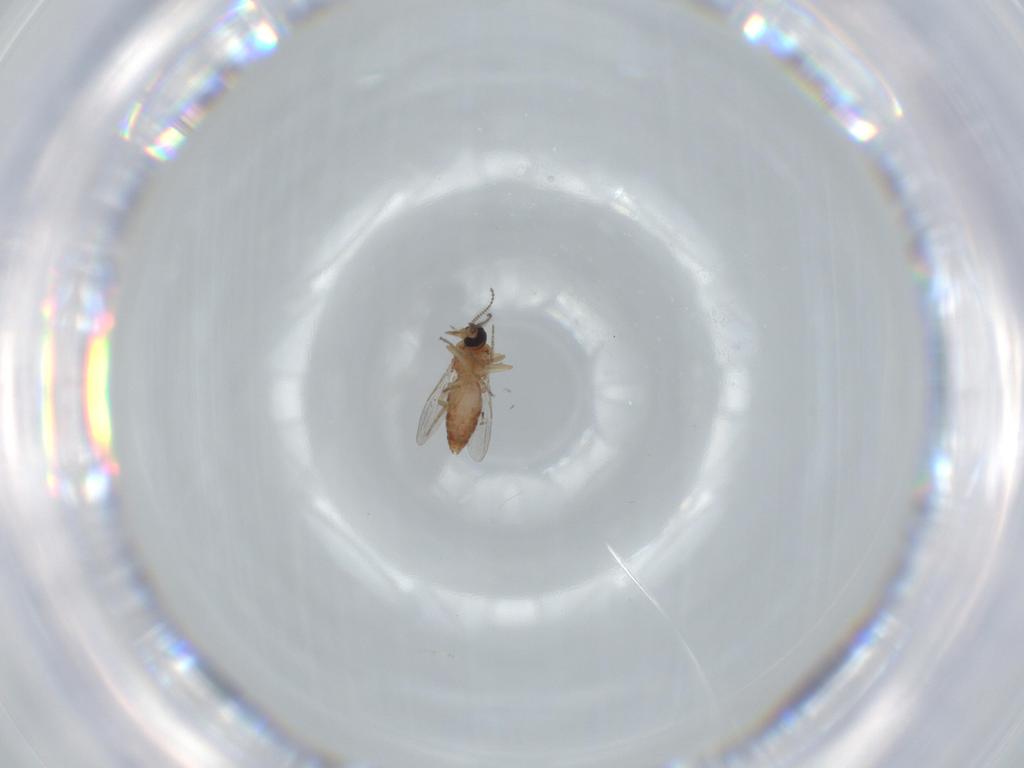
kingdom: Animalia
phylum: Arthropoda
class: Insecta
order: Diptera
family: Ceratopogonidae
